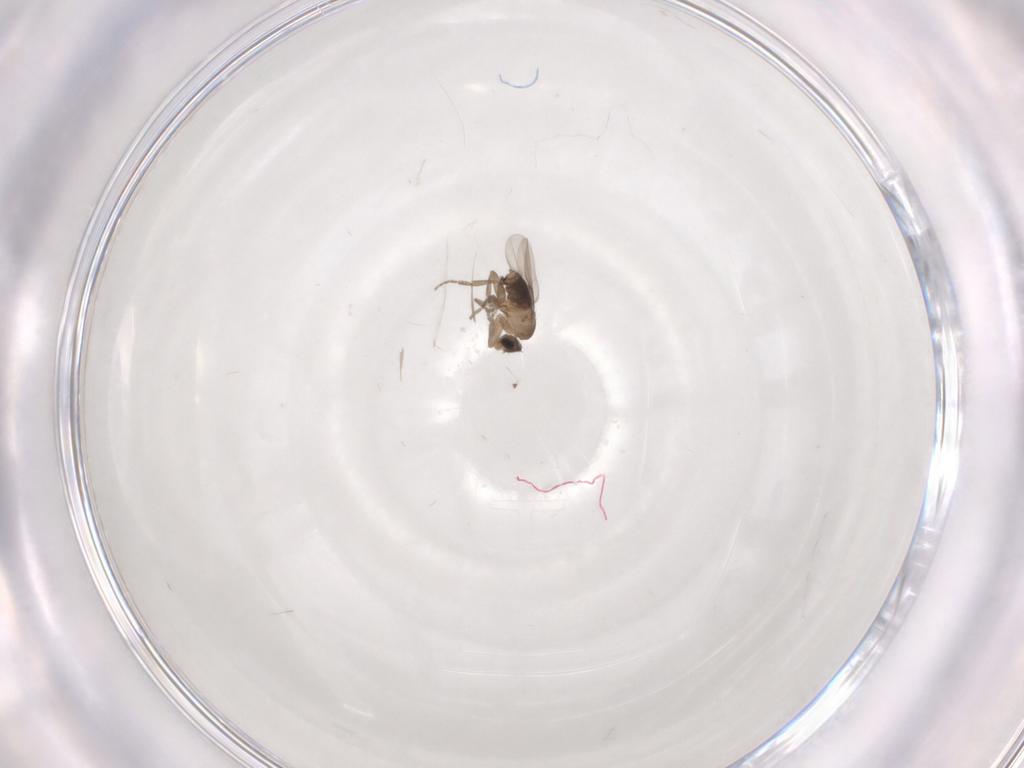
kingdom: Animalia
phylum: Arthropoda
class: Insecta
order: Diptera
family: Sciaridae
